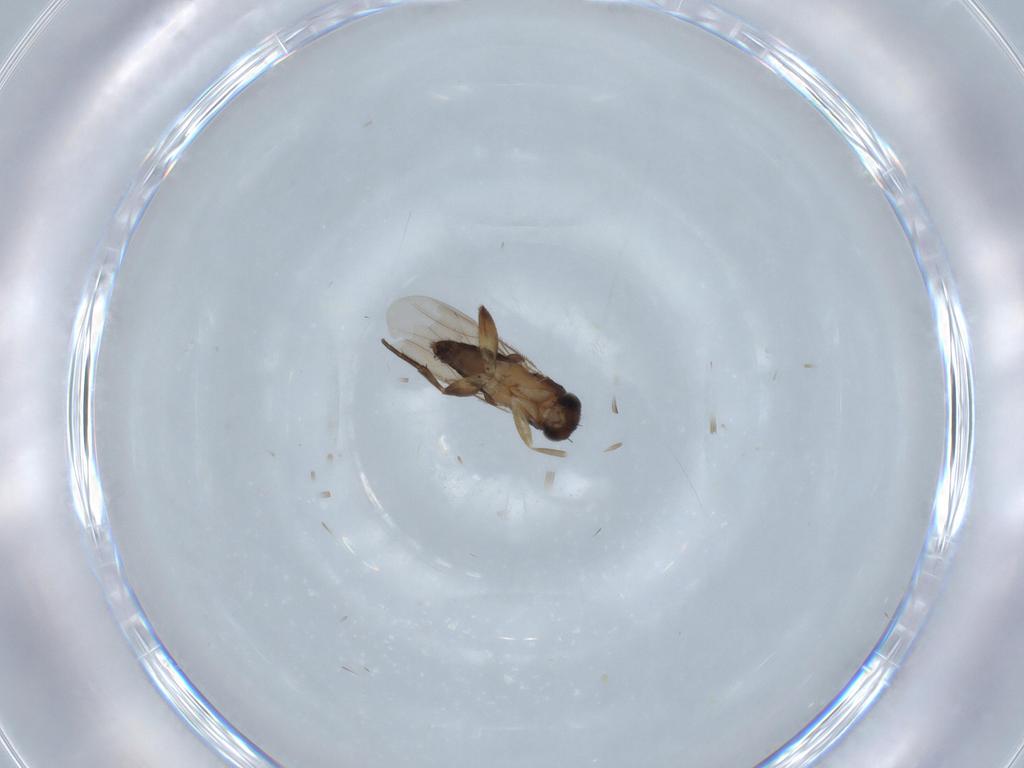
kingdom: Animalia
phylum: Arthropoda
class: Insecta
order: Diptera
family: Phoridae
